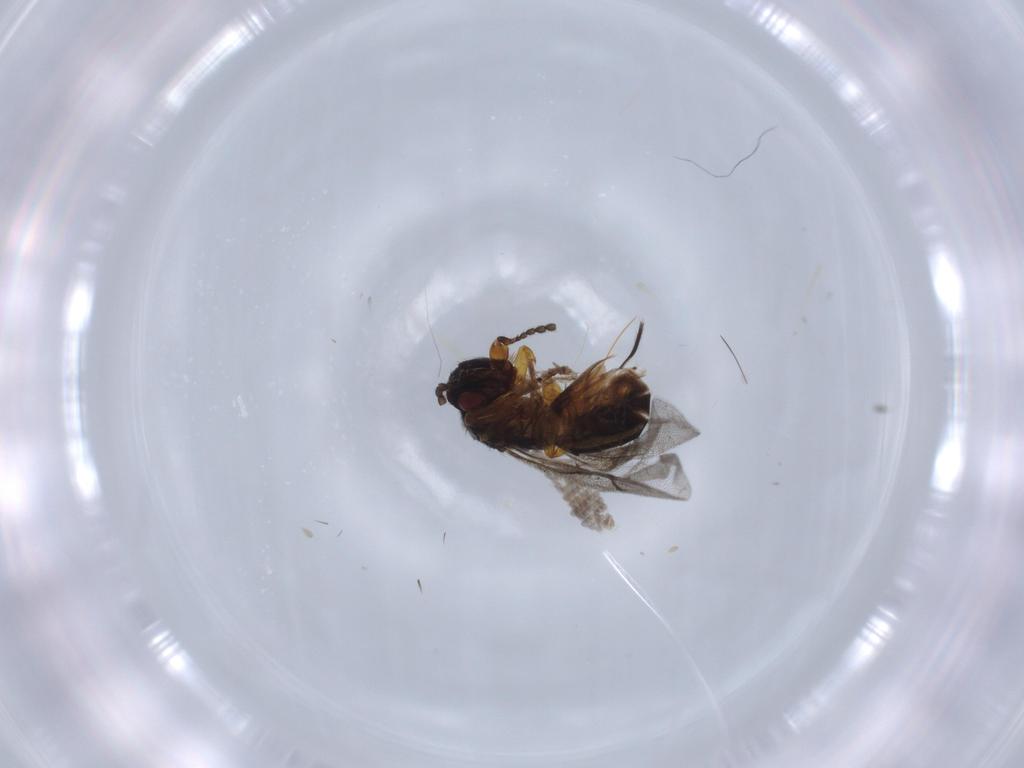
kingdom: Animalia
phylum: Arthropoda
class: Insecta
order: Hymenoptera
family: Agaonidae
